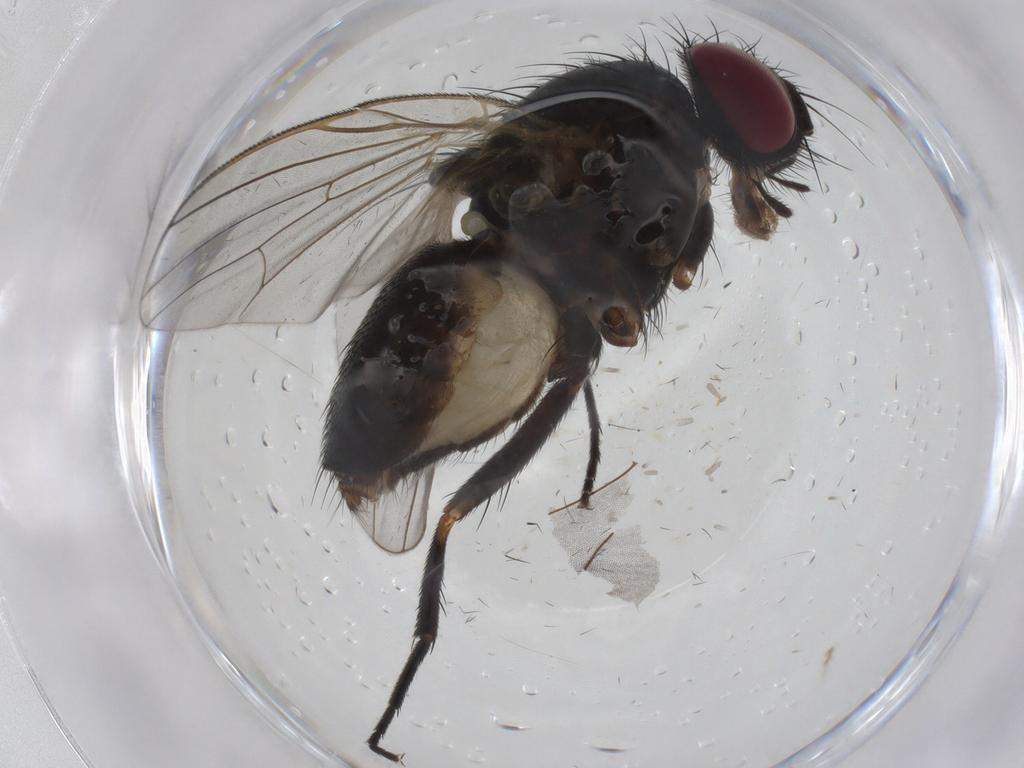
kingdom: Animalia
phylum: Arthropoda
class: Insecta
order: Diptera
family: Fannia
